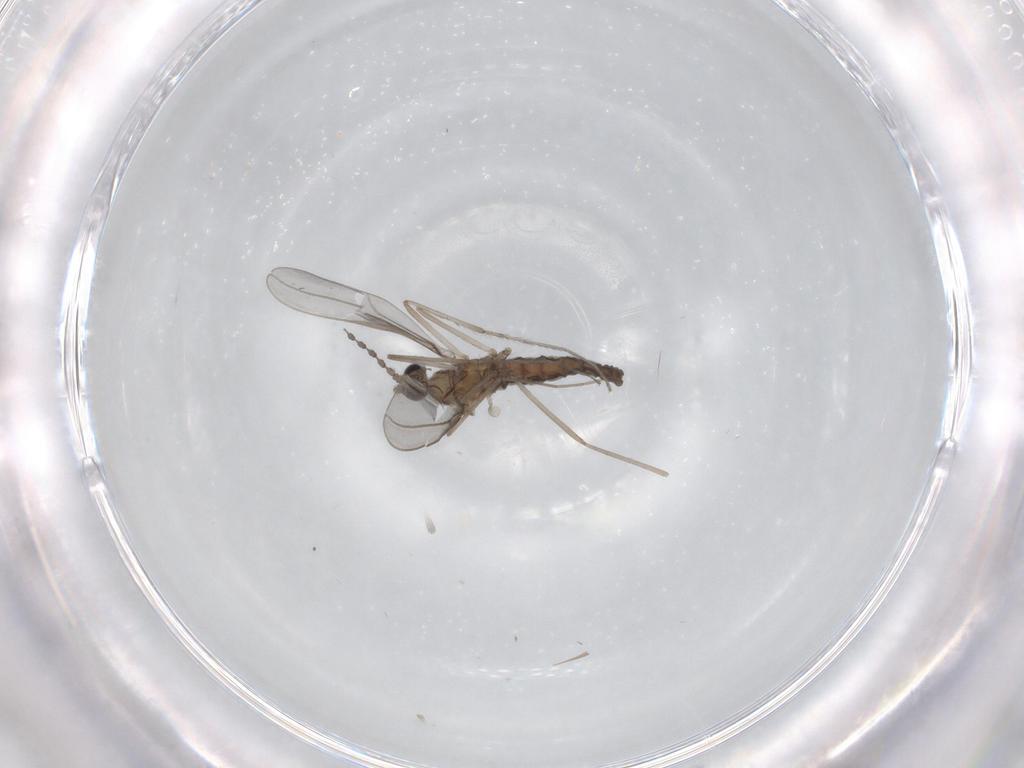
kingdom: Animalia
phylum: Arthropoda
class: Insecta
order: Diptera
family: Cecidomyiidae
